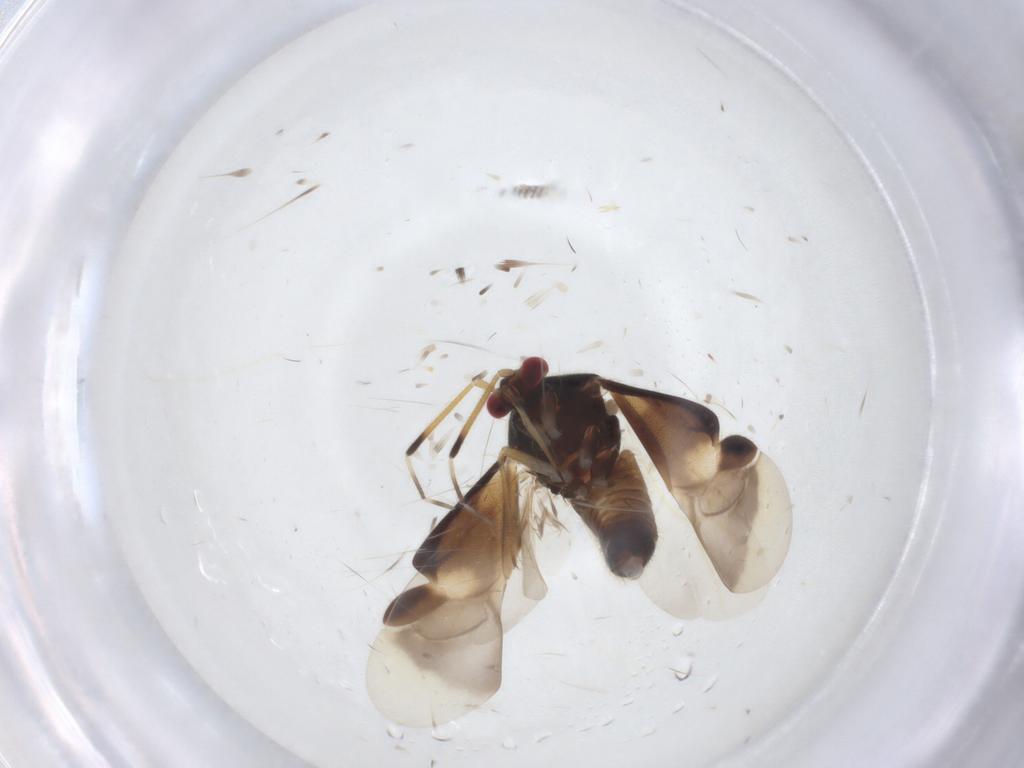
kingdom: Animalia
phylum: Arthropoda
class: Insecta
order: Hemiptera
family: Miridae
